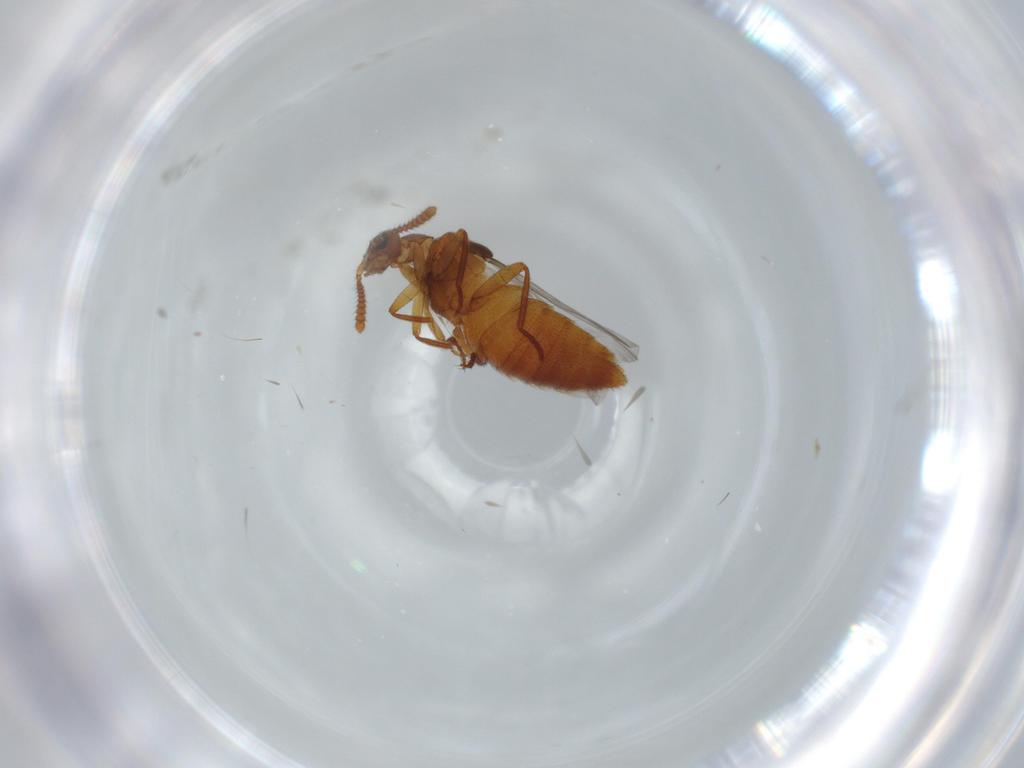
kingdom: Animalia
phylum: Arthropoda
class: Insecta
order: Coleoptera
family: Staphylinidae
